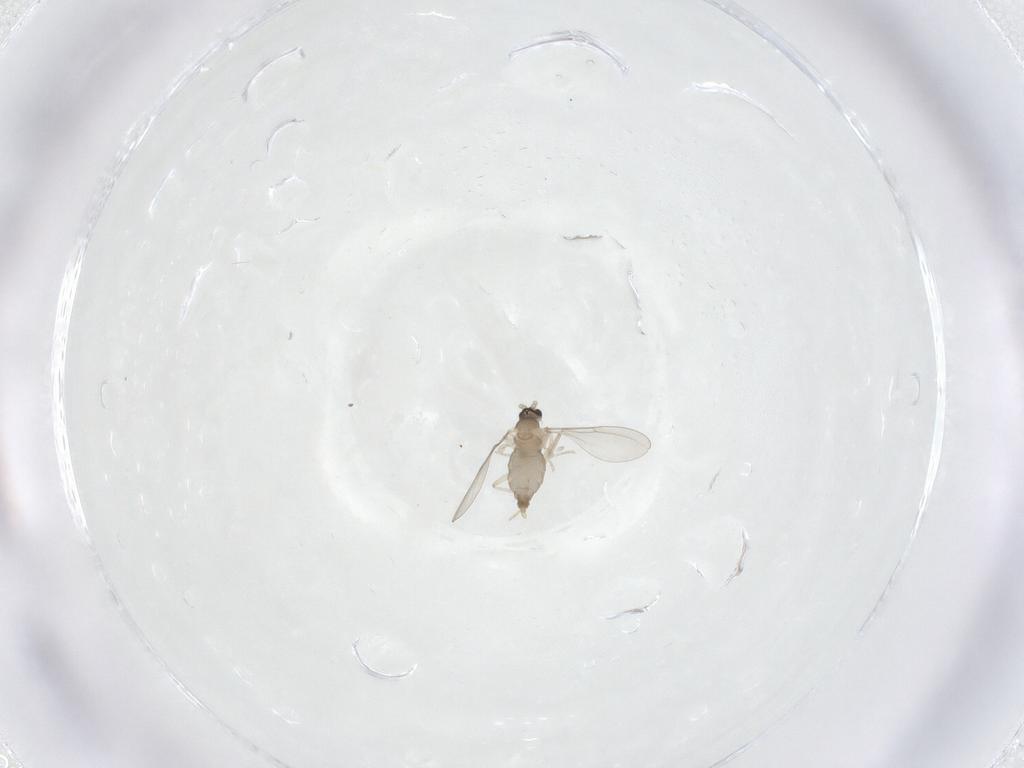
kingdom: Animalia
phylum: Arthropoda
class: Insecta
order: Diptera
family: Cecidomyiidae
